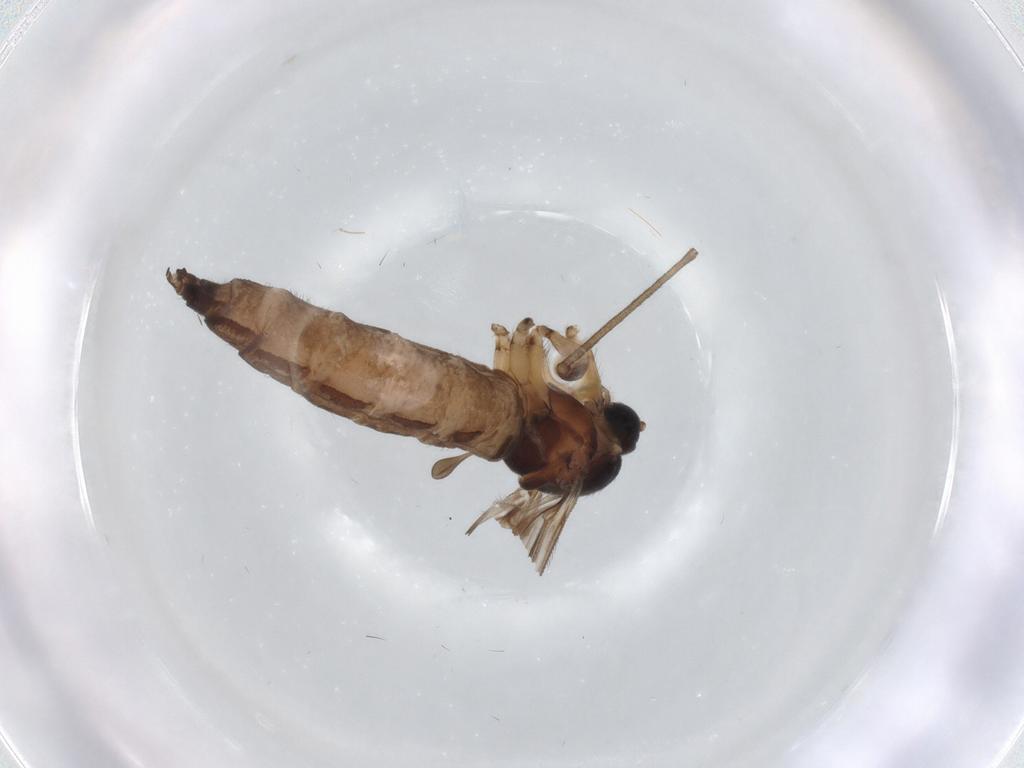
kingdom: Animalia
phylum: Arthropoda
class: Insecta
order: Diptera
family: Sciaridae
